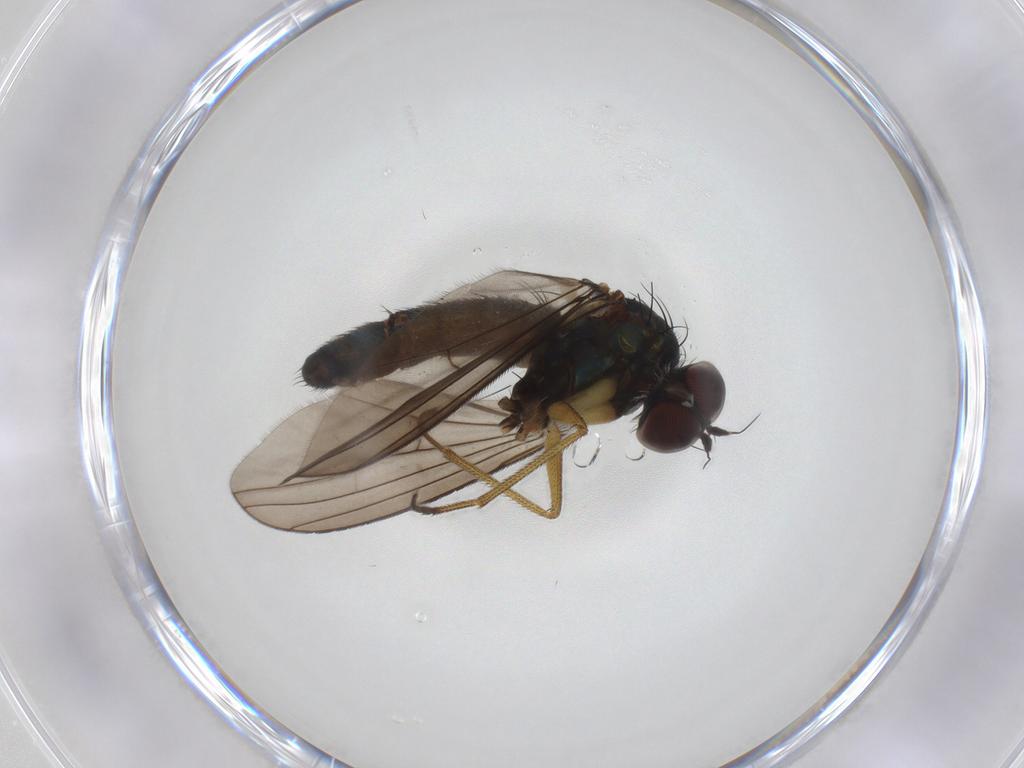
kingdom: Animalia
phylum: Arthropoda
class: Insecta
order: Diptera
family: Dolichopodidae
